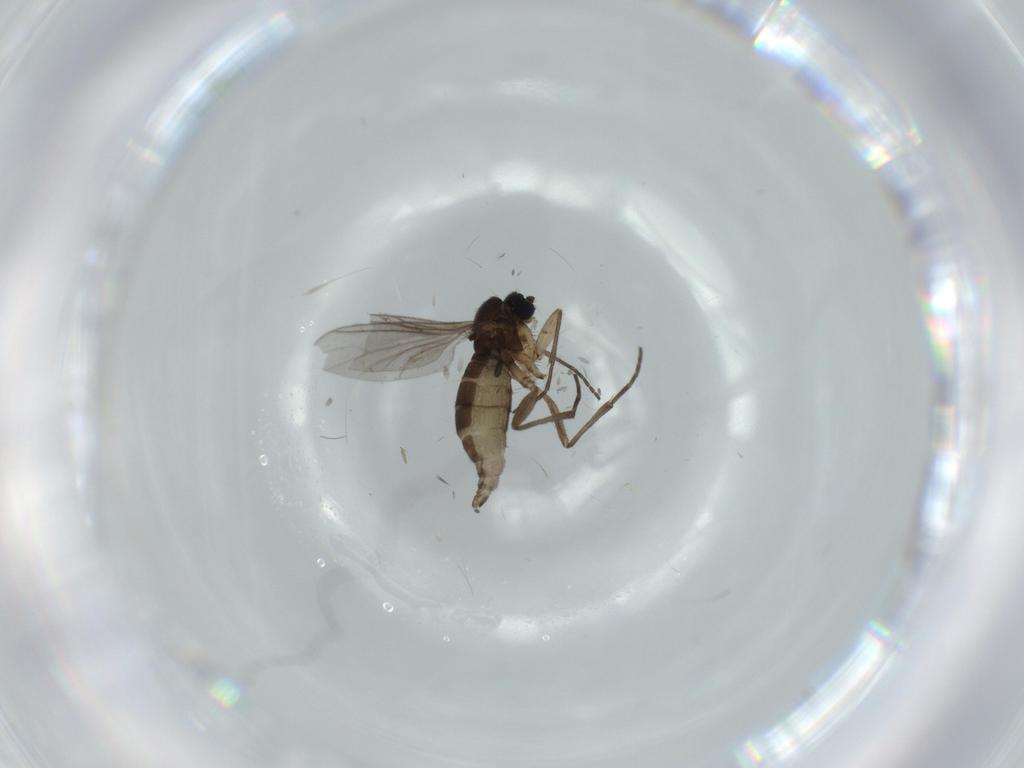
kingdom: Animalia
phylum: Arthropoda
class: Insecta
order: Diptera
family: Sciaridae
